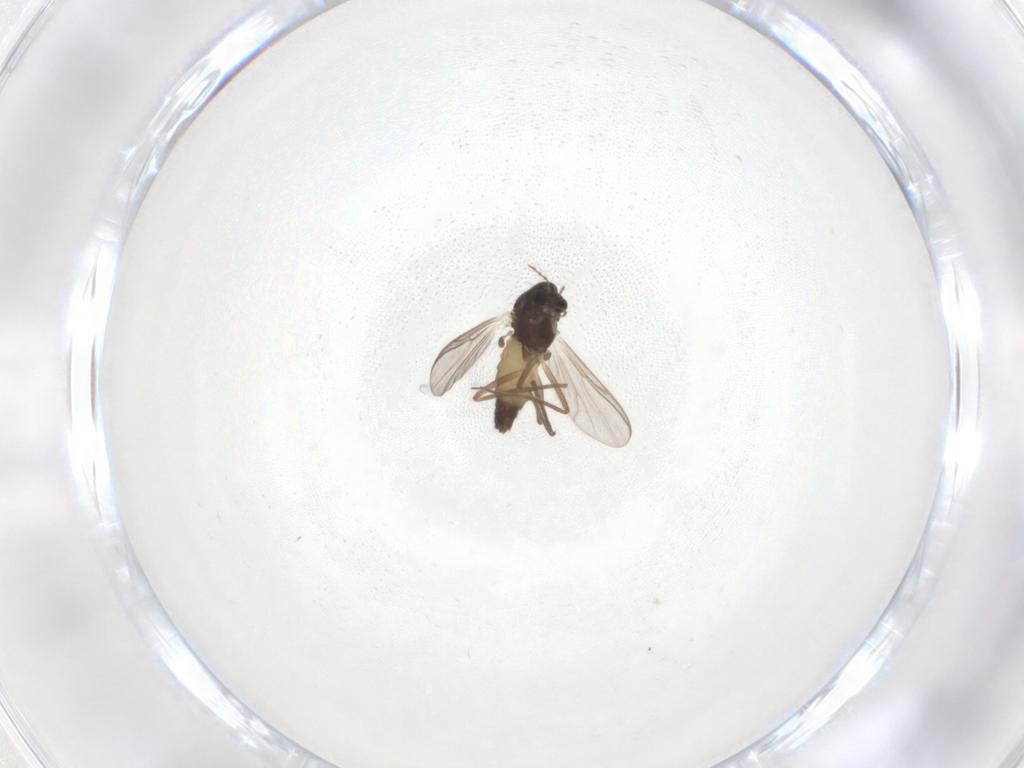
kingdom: Animalia
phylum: Arthropoda
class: Insecta
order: Diptera
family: Chironomidae
